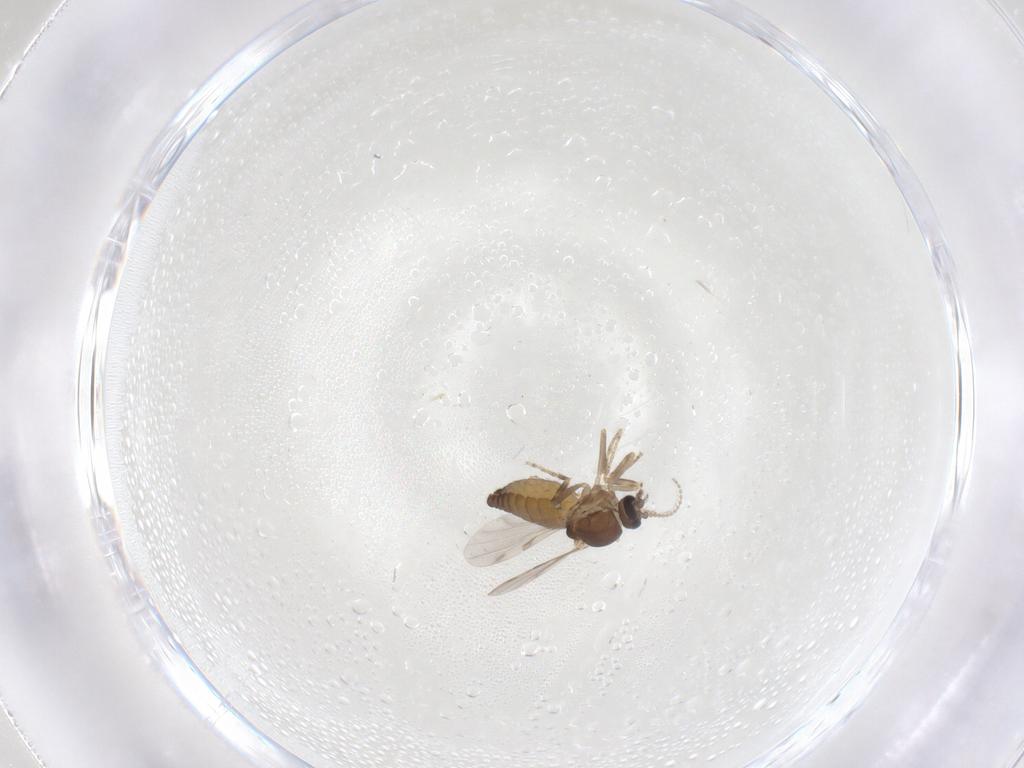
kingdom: Animalia
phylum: Arthropoda
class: Insecta
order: Diptera
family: Ceratopogonidae
